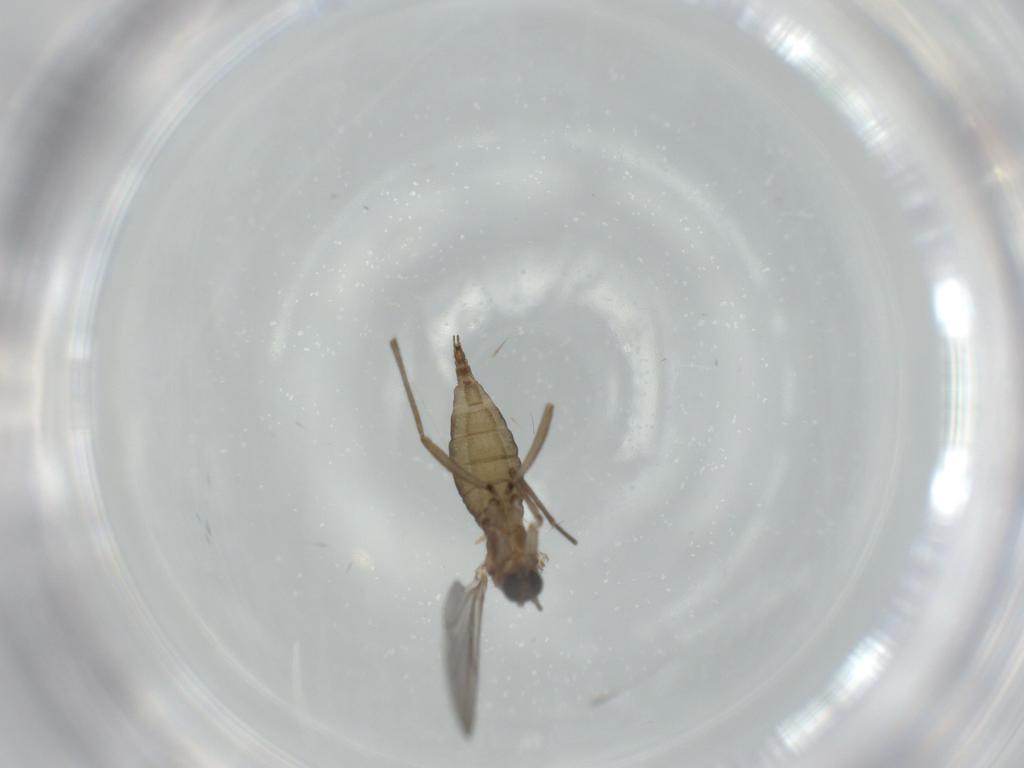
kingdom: Animalia
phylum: Arthropoda
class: Insecta
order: Diptera
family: Sciaridae
